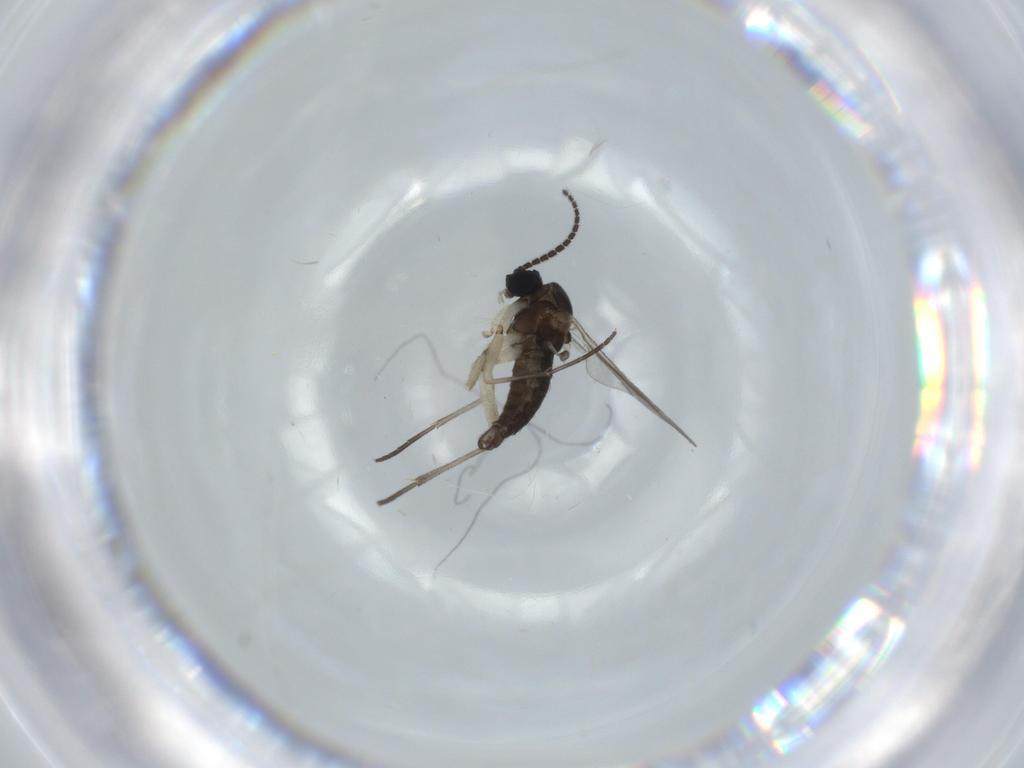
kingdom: Animalia
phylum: Arthropoda
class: Insecta
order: Diptera
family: Sciaridae
